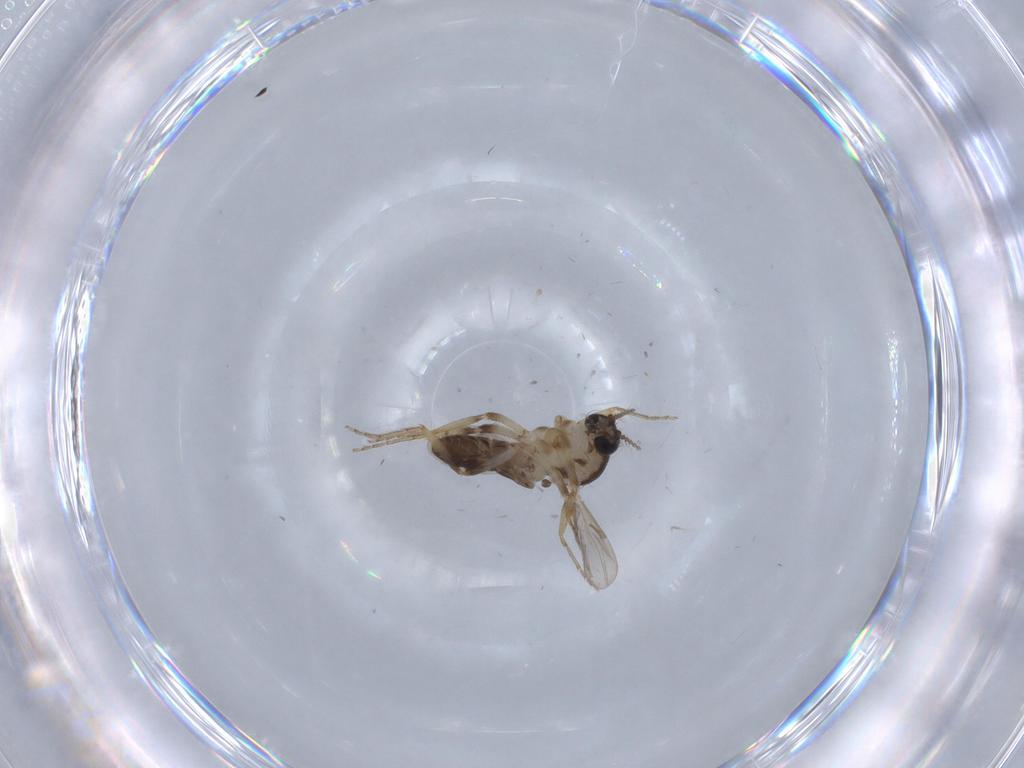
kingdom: Animalia
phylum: Arthropoda
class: Insecta
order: Diptera
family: Ceratopogonidae
